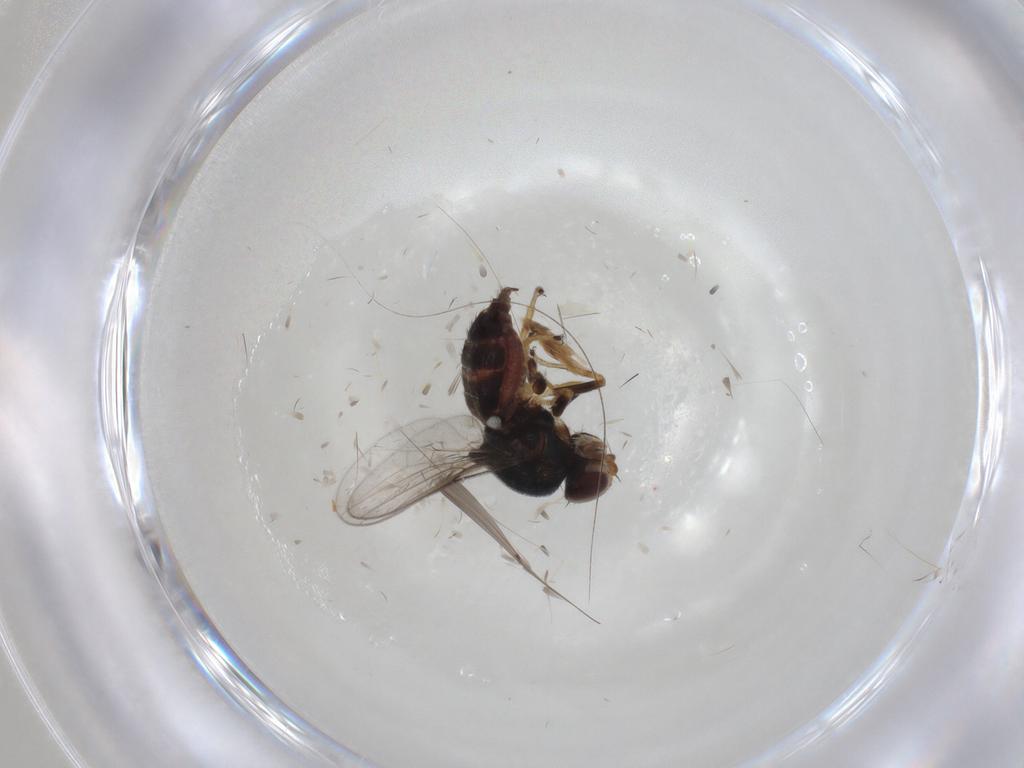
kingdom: Animalia
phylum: Arthropoda
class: Insecta
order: Diptera
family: Chloropidae
